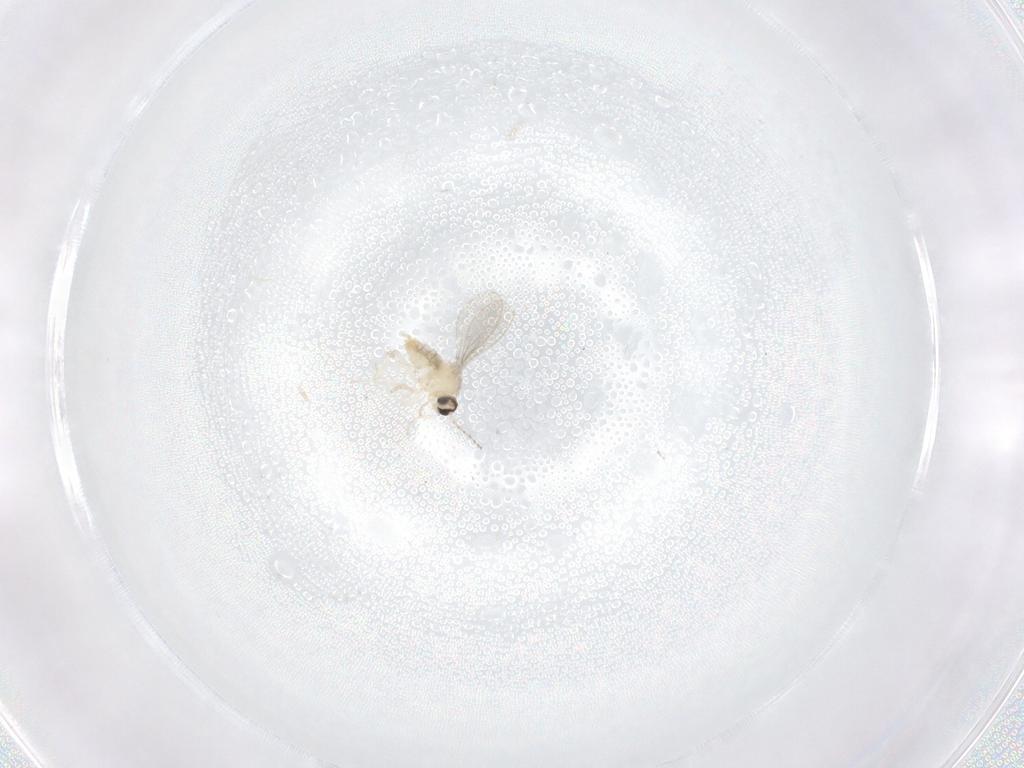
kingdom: Animalia
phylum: Arthropoda
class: Insecta
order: Diptera
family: Cecidomyiidae
